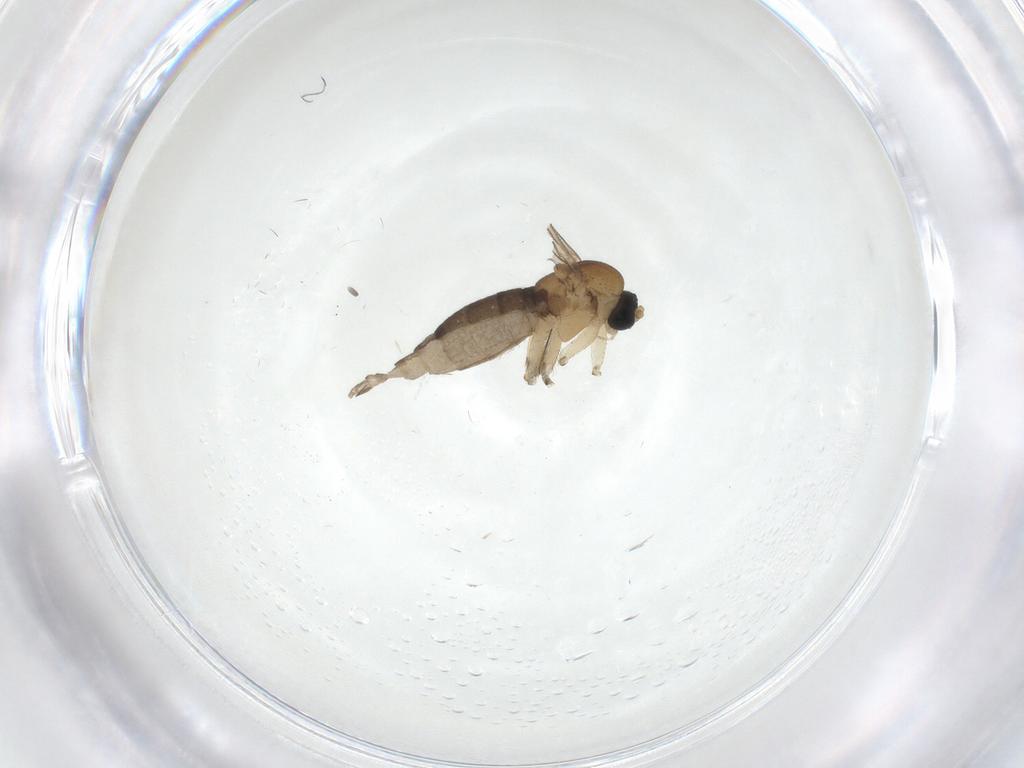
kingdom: Animalia
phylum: Arthropoda
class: Insecta
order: Diptera
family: Sciaridae
